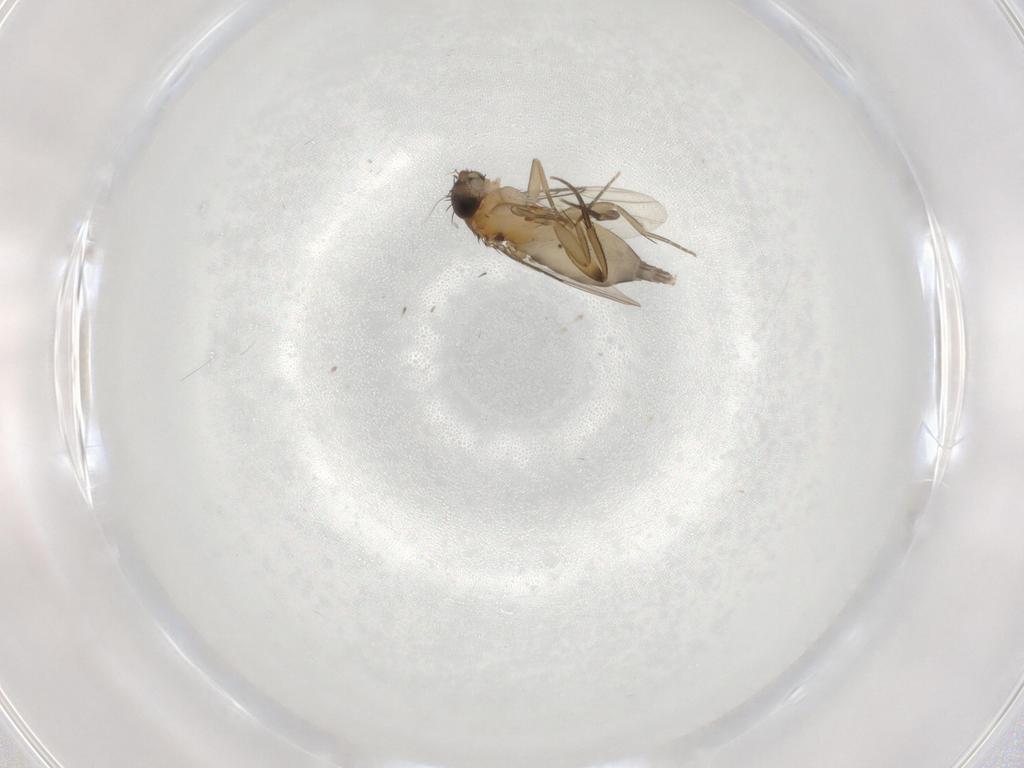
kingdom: Animalia
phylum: Arthropoda
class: Insecta
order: Diptera
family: Phoridae
